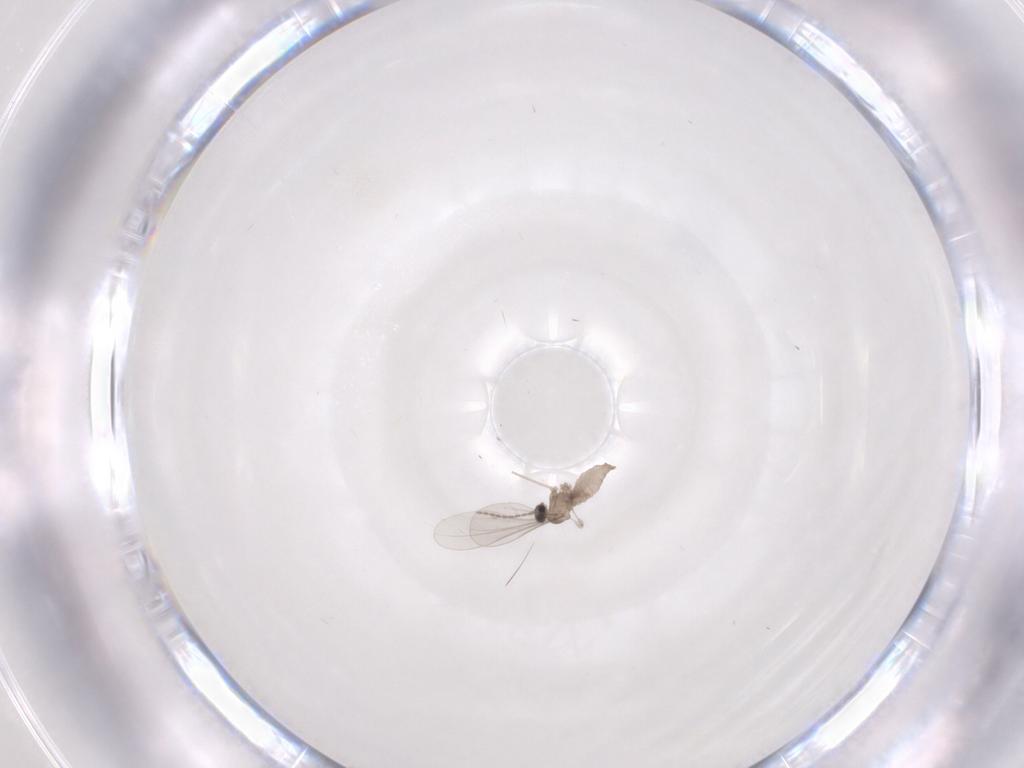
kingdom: Animalia
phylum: Arthropoda
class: Insecta
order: Diptera
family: Cecidomyiidae
